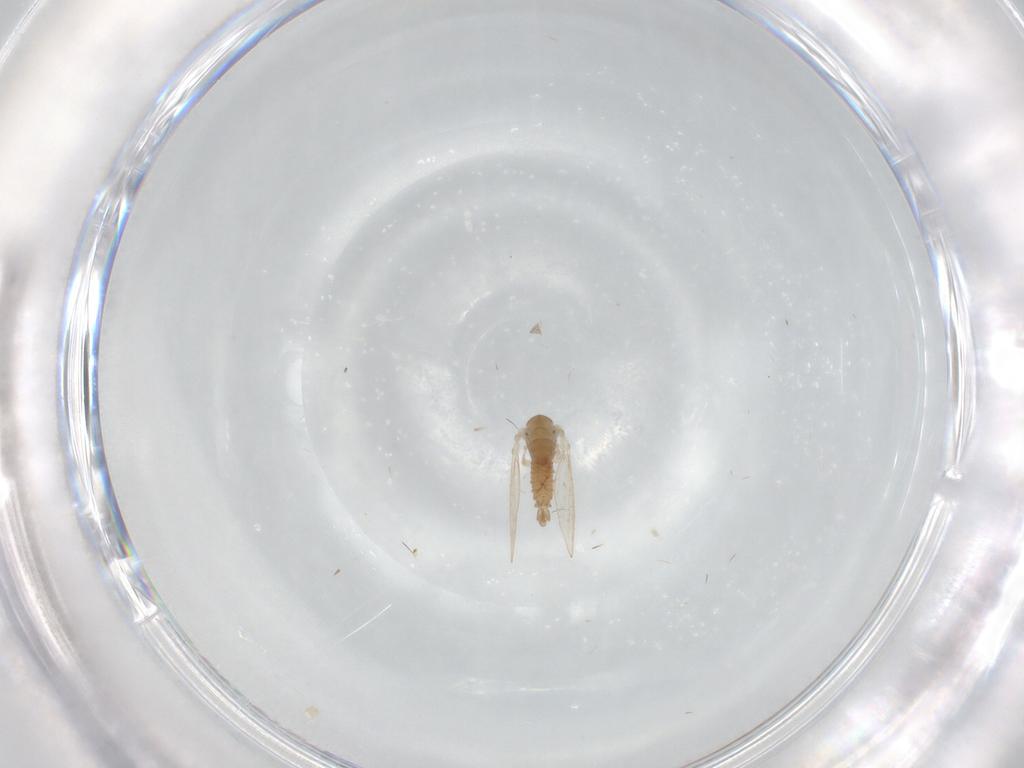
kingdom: Animalia
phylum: Arthropoda
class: Insecta
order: Diptera
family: Psychodidae
